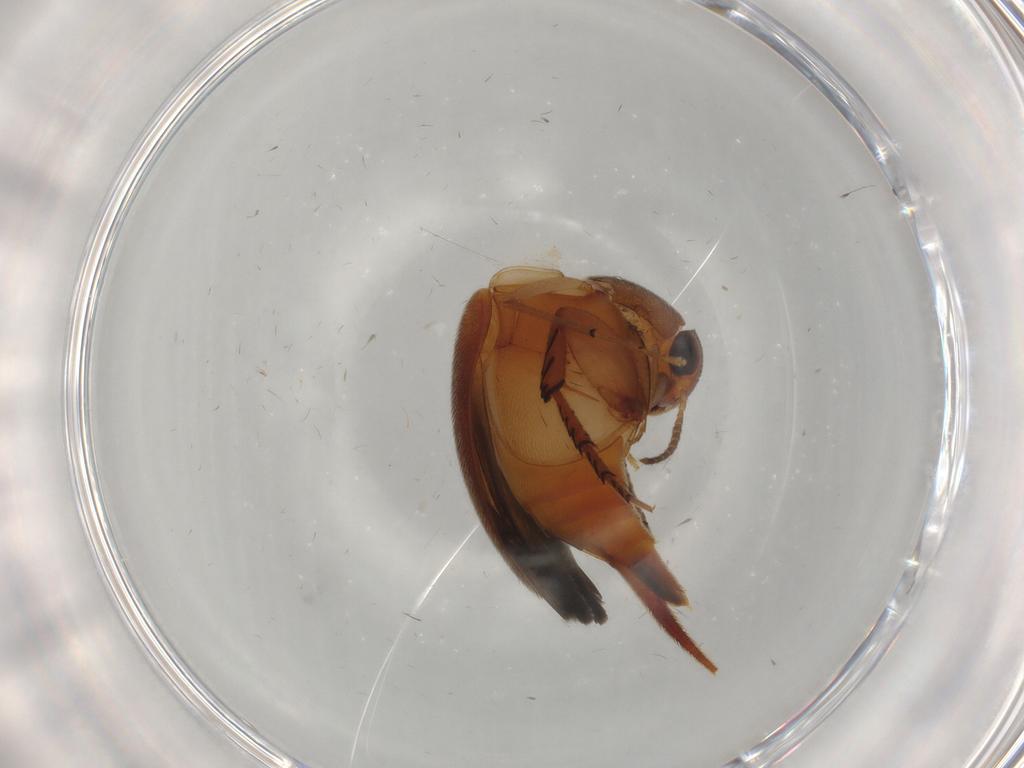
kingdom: Animalia
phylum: Arthropoda
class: Insecta
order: Coleoptera
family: Mordellidae
